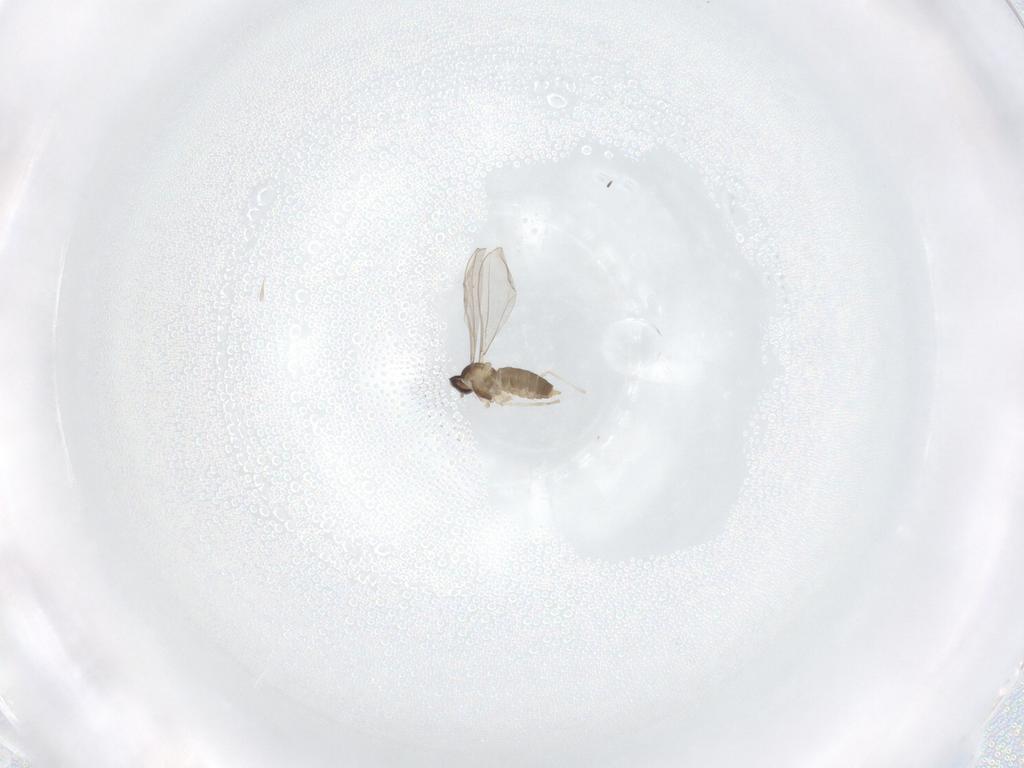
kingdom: Animalia
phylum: Arthropoda
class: Insecta
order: Diptera
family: Cecidomyiidae
